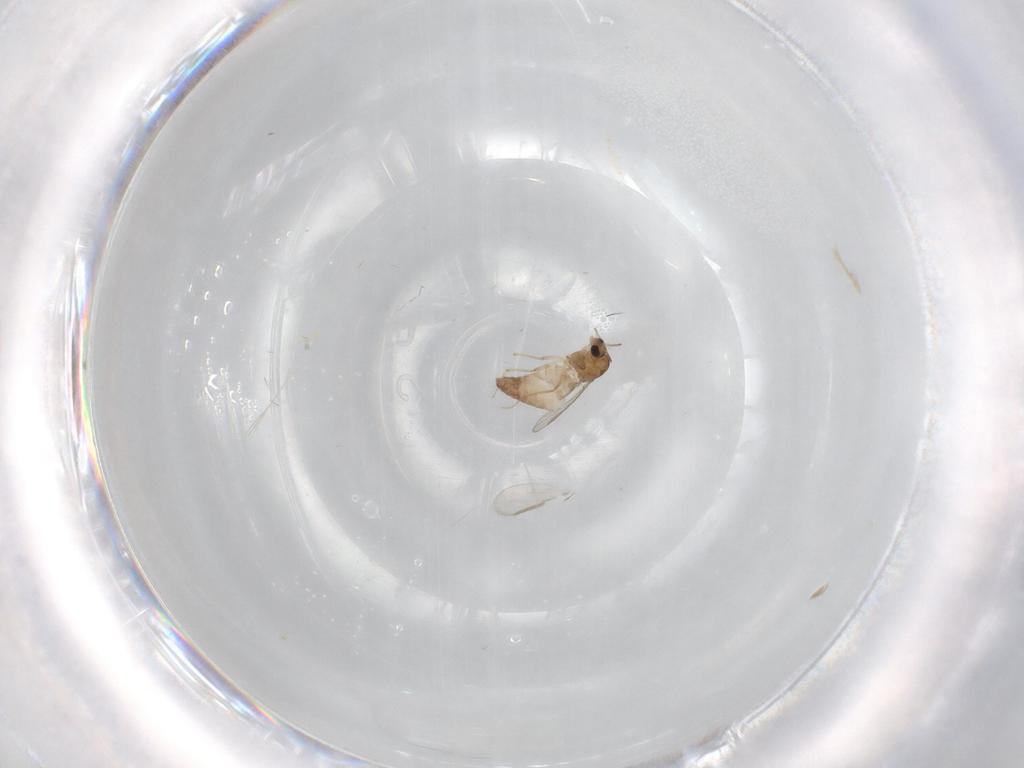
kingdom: Animalia
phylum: Arthropoda
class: Insecta
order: Diptera
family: Chironomidae
